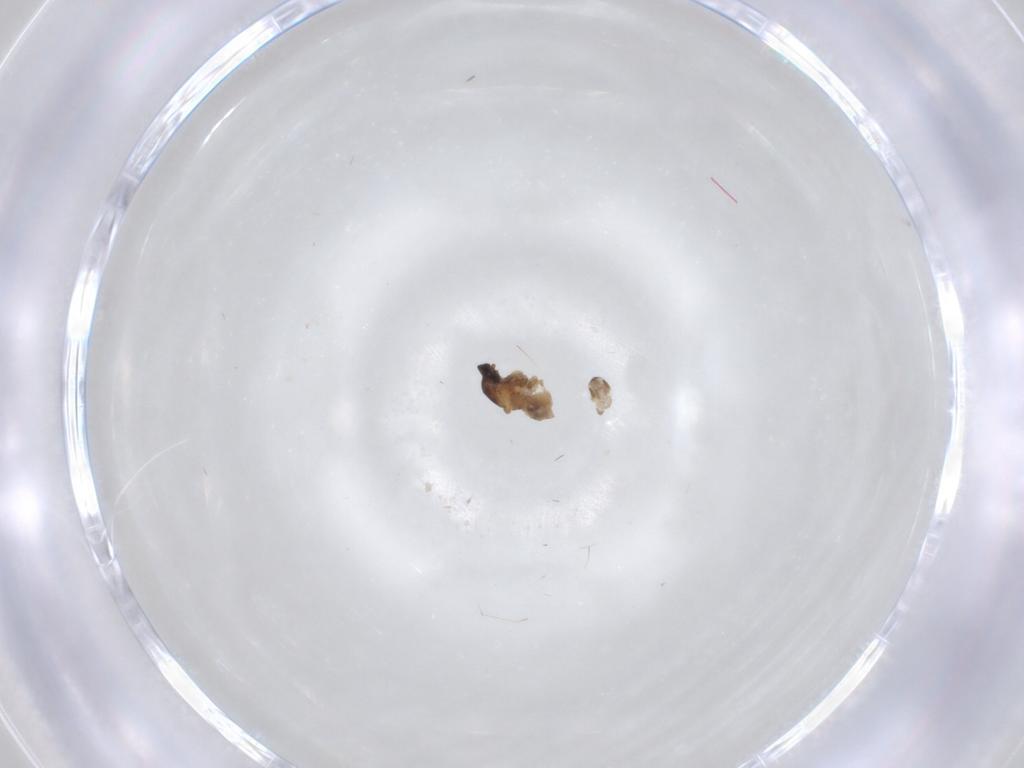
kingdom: Animalia
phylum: Arthropoda
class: Insecta
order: Diptera
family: Cecidomyiidae
